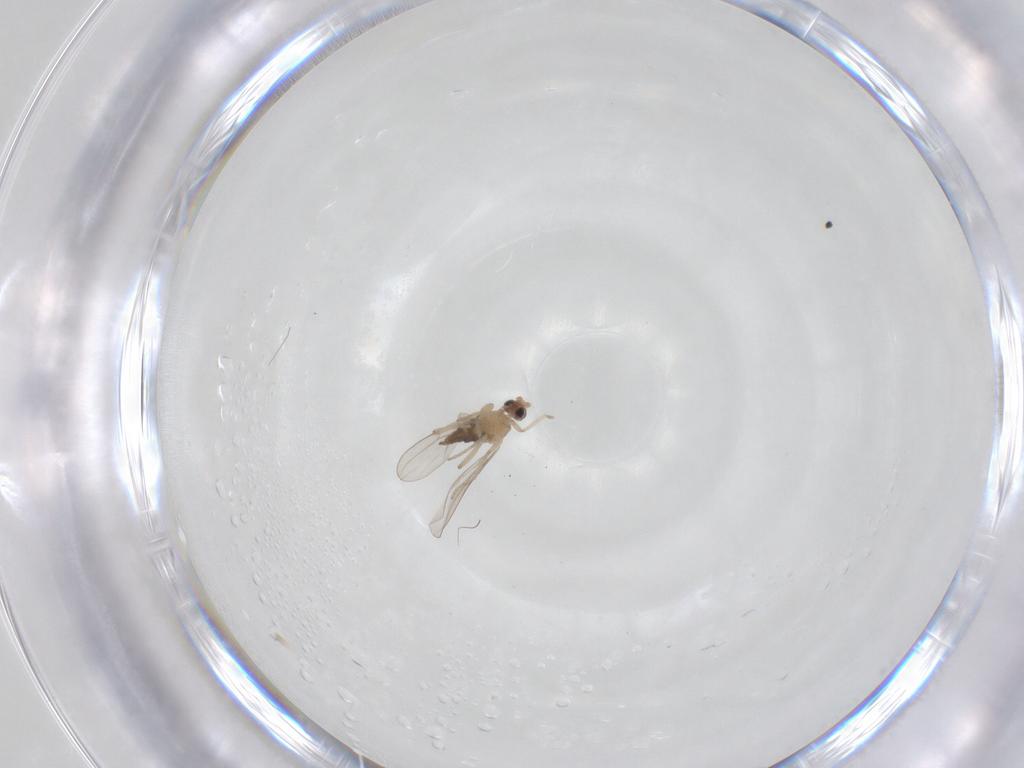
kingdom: Animalia
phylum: Arthropoda
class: Insecta
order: Diptera
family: Cecidomyiidae
